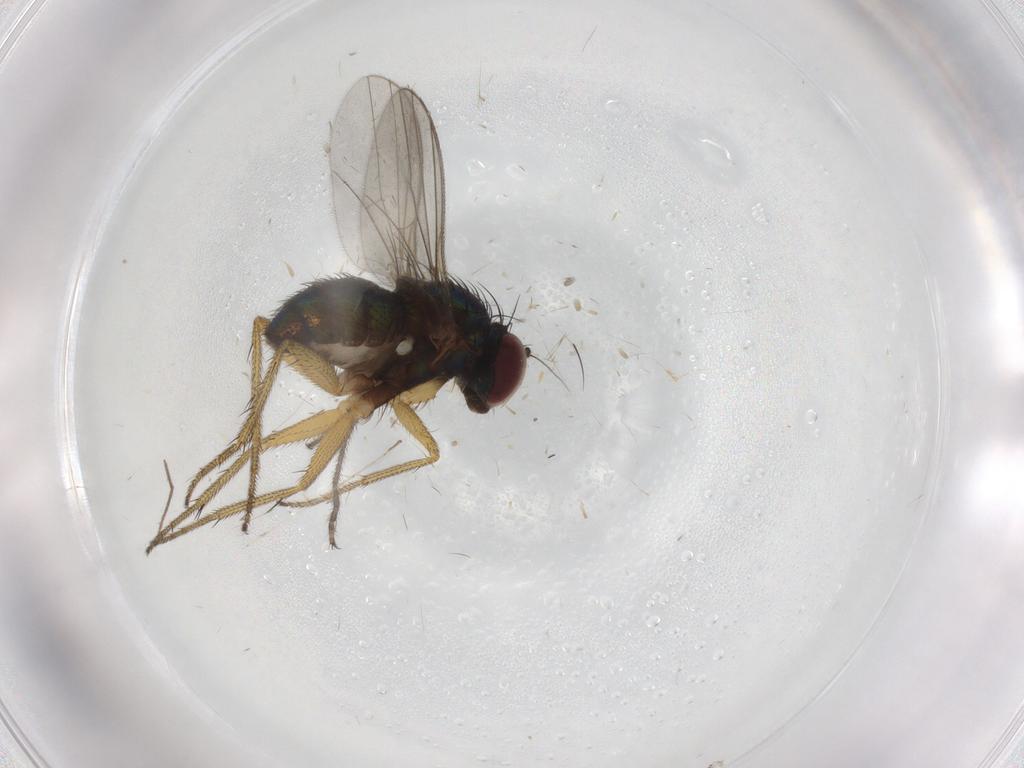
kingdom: Animalia
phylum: Arthropoda
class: Insecta
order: Diptera
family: Dolichopodidae
